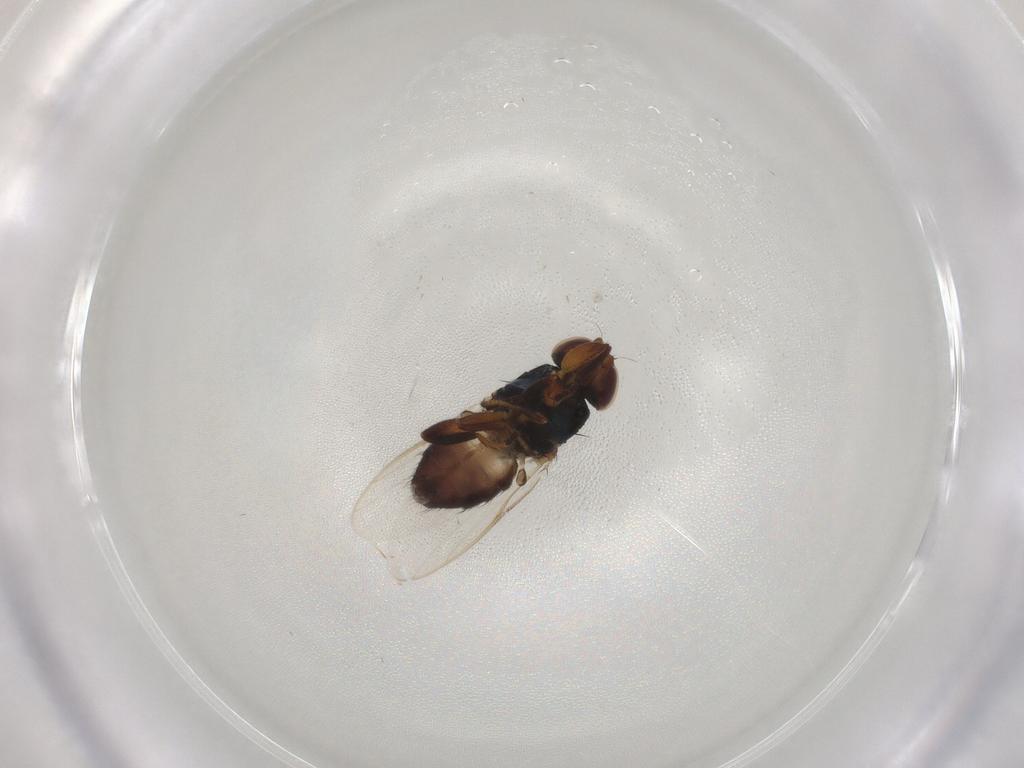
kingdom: Animalia
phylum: Arthropoda
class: Insecta
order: Diptera
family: Chloropidae
